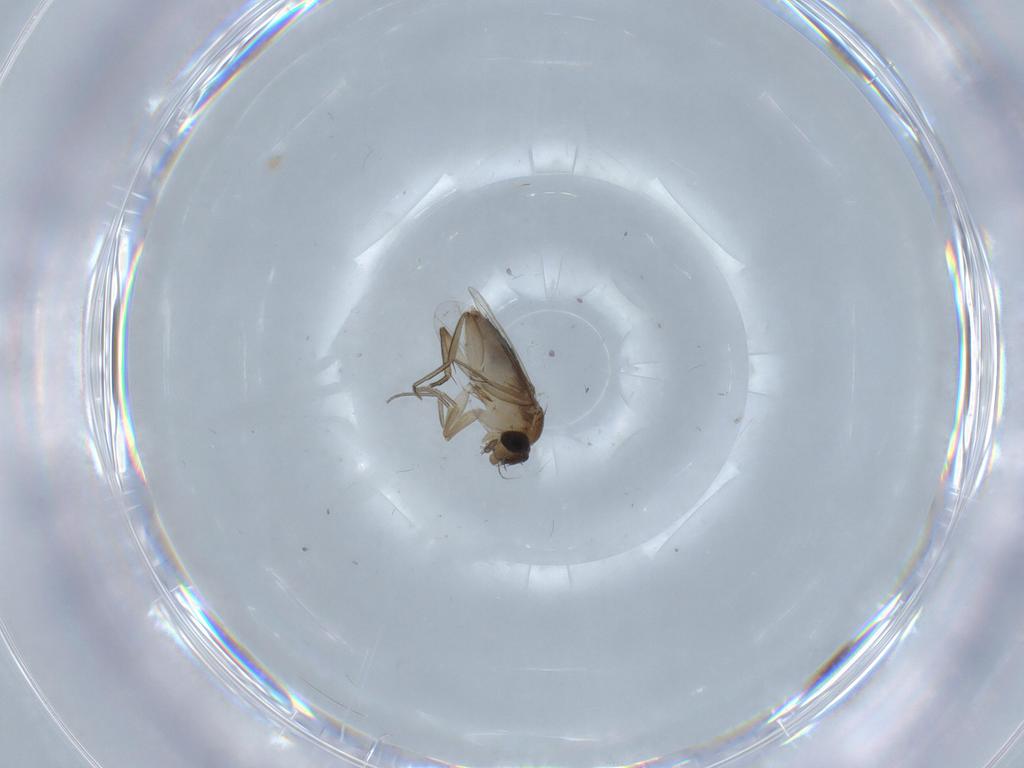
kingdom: Animalia
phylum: Arthropoda
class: Insecta
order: Diptera
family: Phoridae
